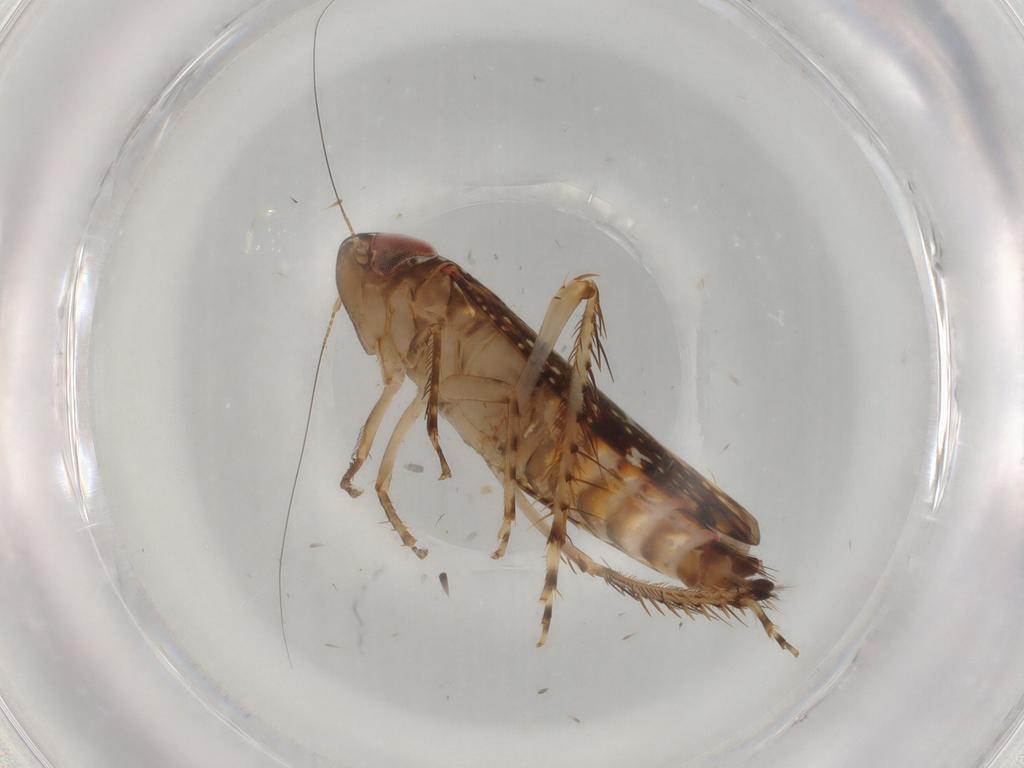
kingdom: Animalia
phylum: Arthropoda
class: Insecta
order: Hemiptera
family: Cicadellidae
